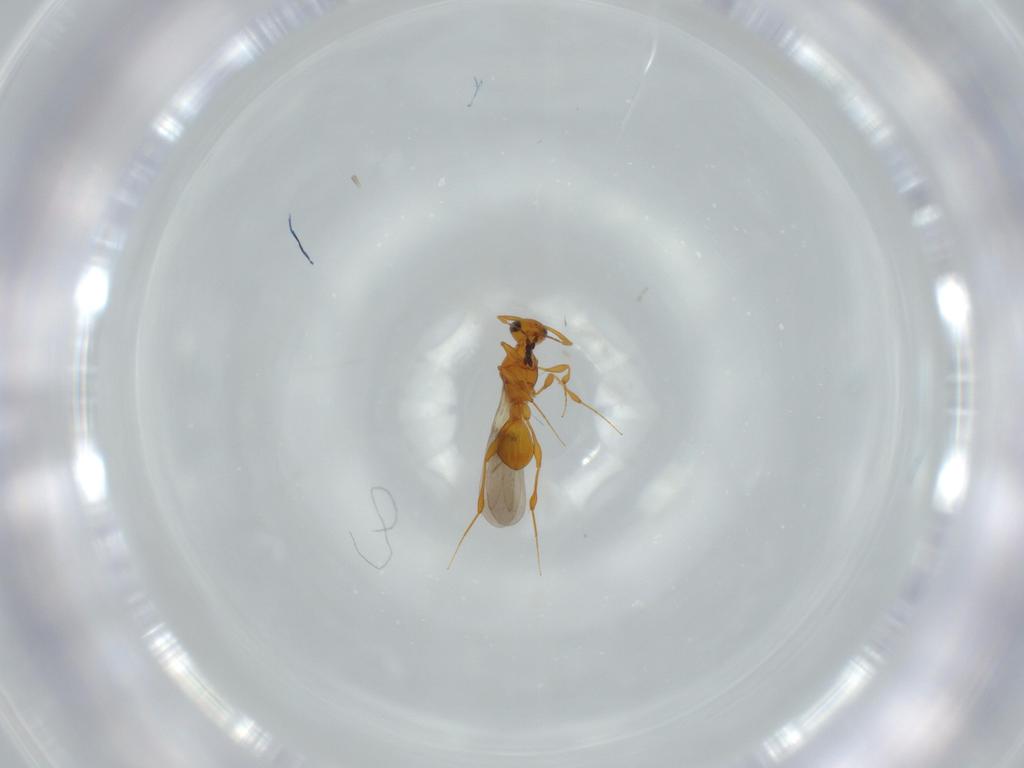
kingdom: Animalia
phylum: Arthropoda
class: Insecta
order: Hymenoptera
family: Platygastridae
